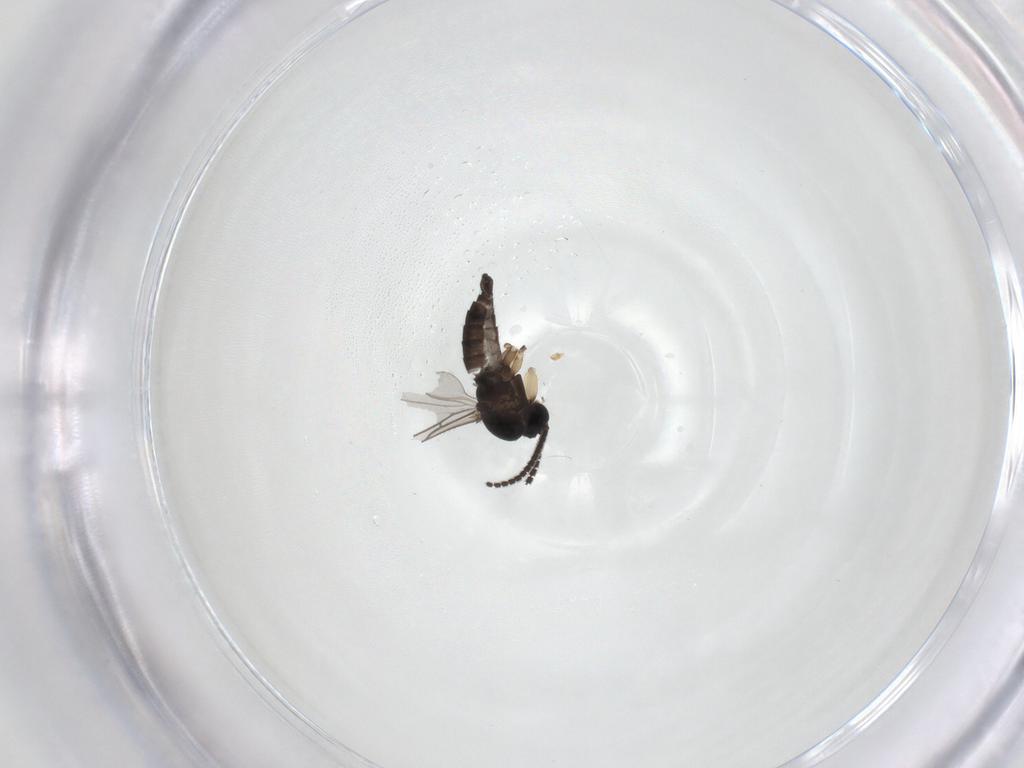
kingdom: Animalia
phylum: Arthropoda
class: Insecta
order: Diptera
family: Sciaridae
